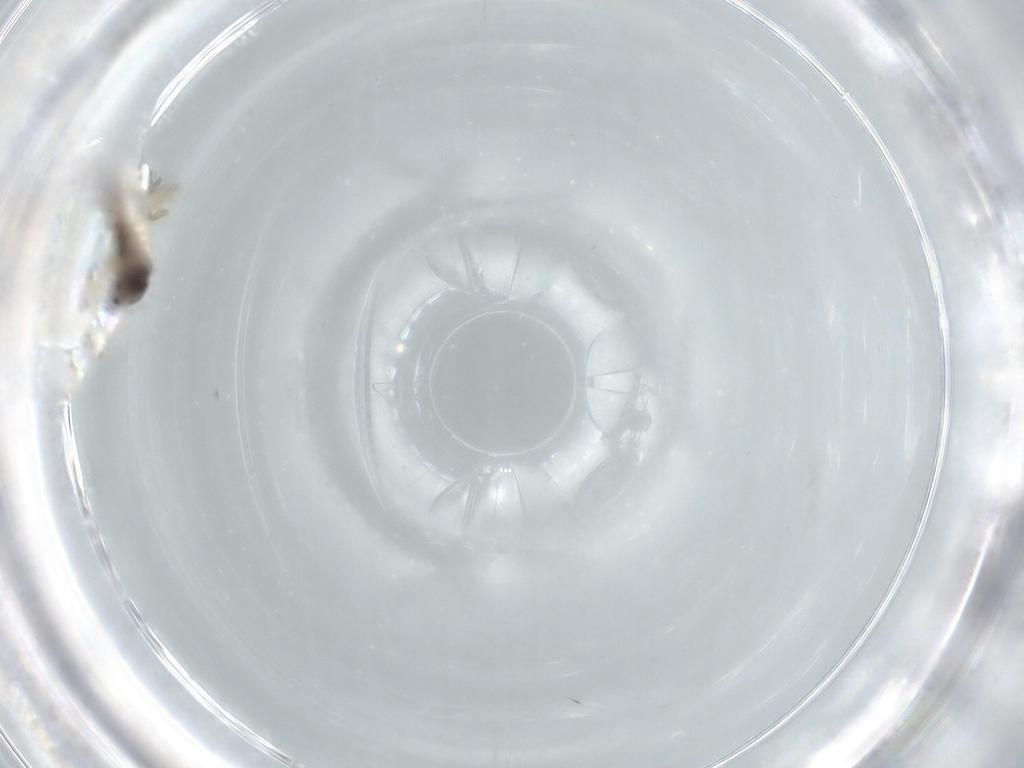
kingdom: Animalia
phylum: Arthropoda
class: Insecta
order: Diptera
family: Chironomidae
